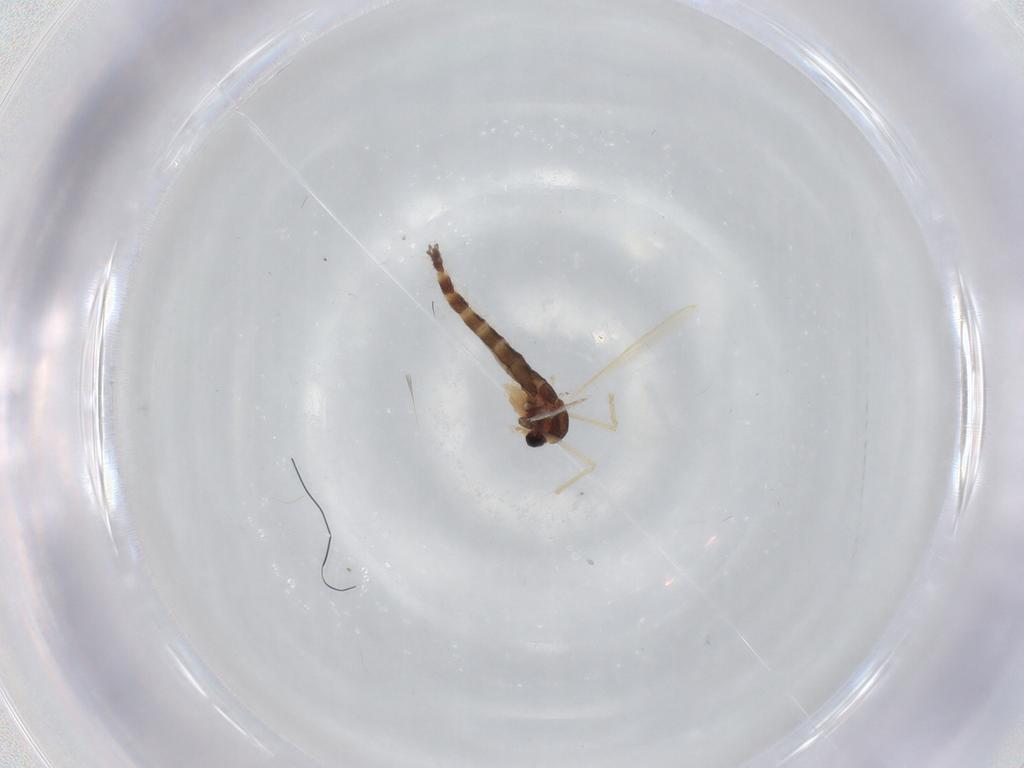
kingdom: Animalia
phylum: Arthropoda
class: Insecta
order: Diptera
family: Chironomidae
